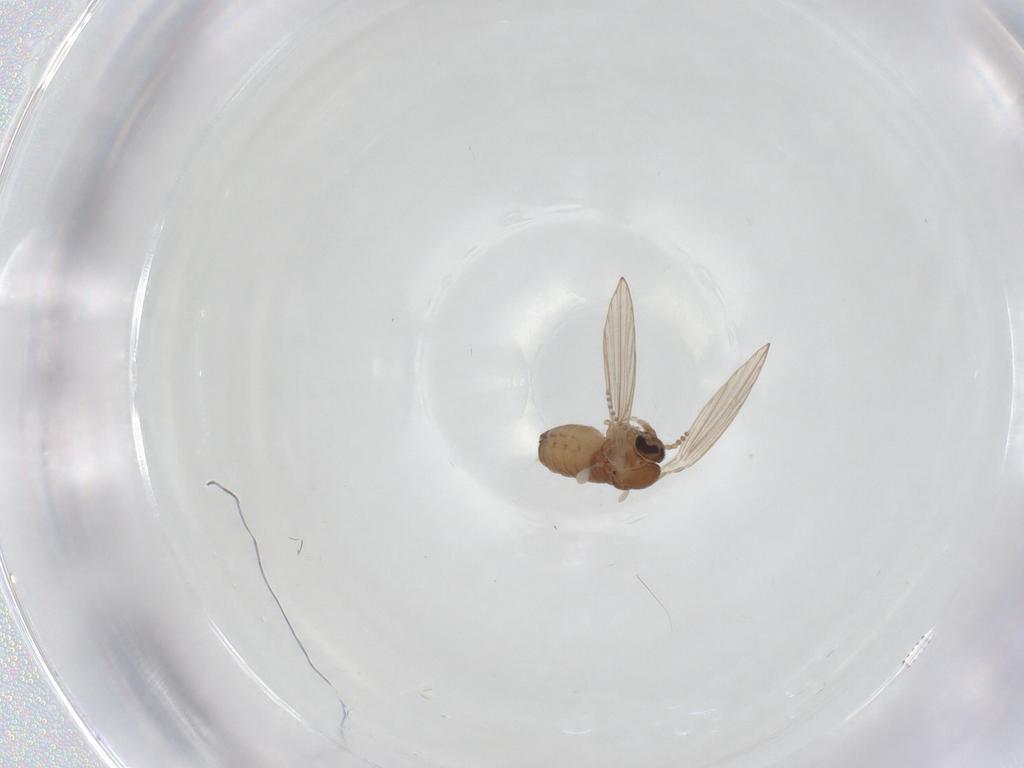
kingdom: Animalia
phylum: Arthropoda
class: Insecta
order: Diptera
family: Psychodidae
